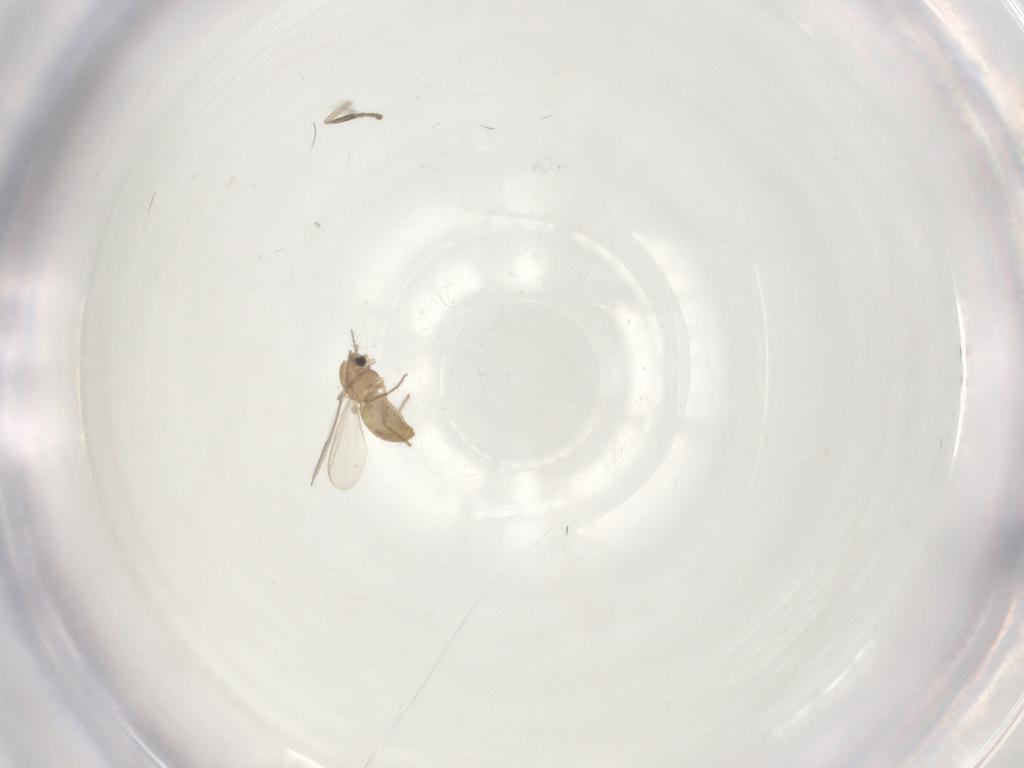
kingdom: Animalia
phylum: Arthropoda
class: Insecta
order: Diptera
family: Chironomidae
